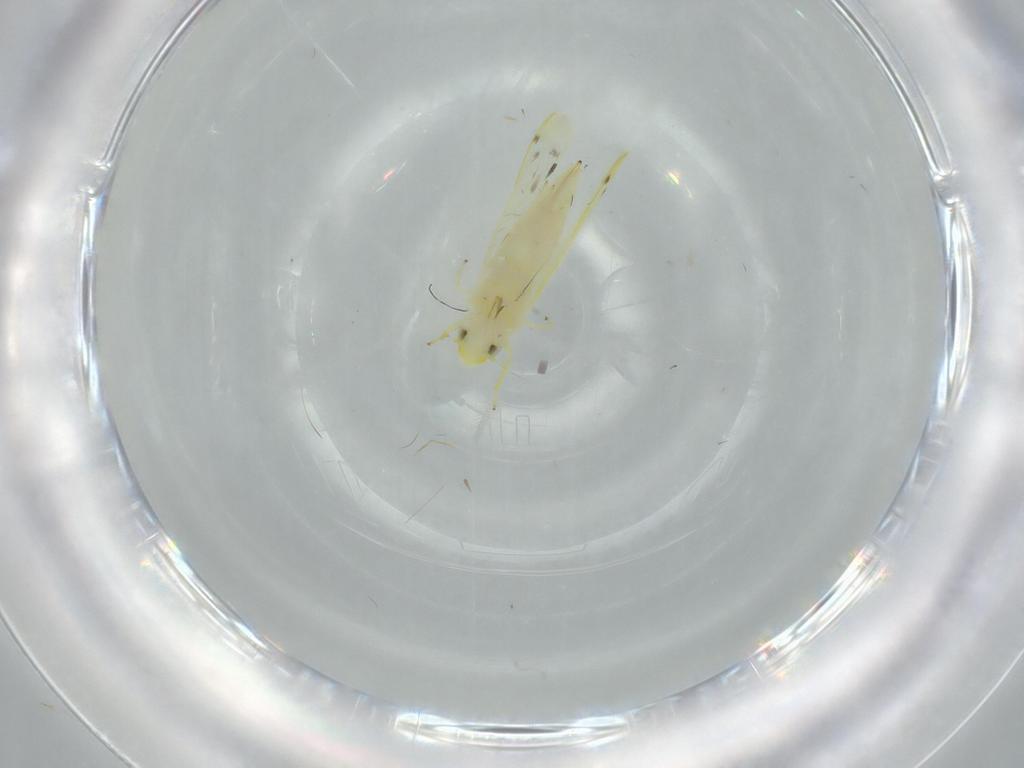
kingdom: Animalia
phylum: Arthropoda
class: Insecta
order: Hemiptera
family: Cicadellidae
